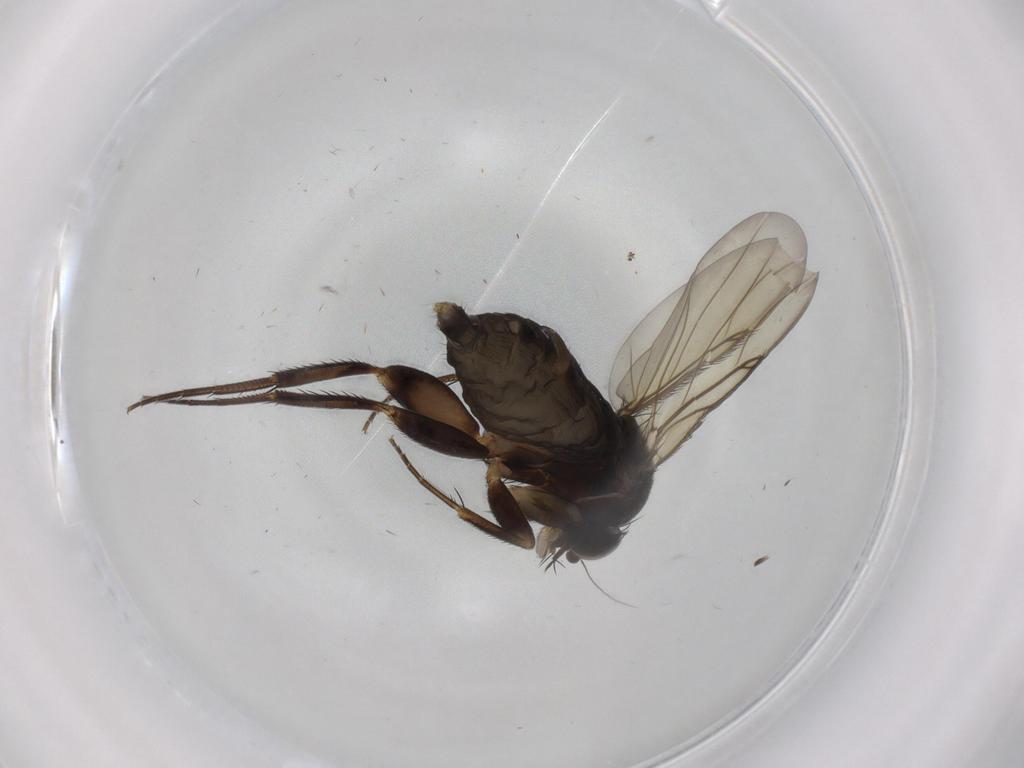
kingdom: Animalia
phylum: Arthropoda
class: Insecta
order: Diptera
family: Phoridae
